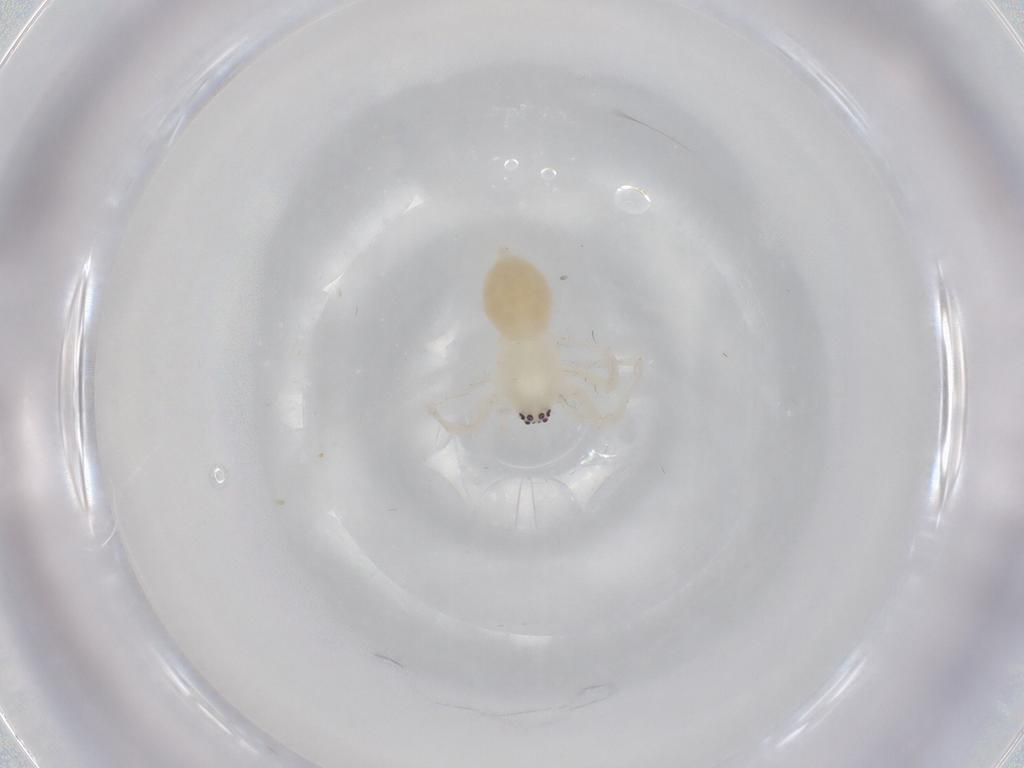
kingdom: Animalia
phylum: Arthropoda
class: Arachnida
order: Araneae
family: Anyphaenidae
